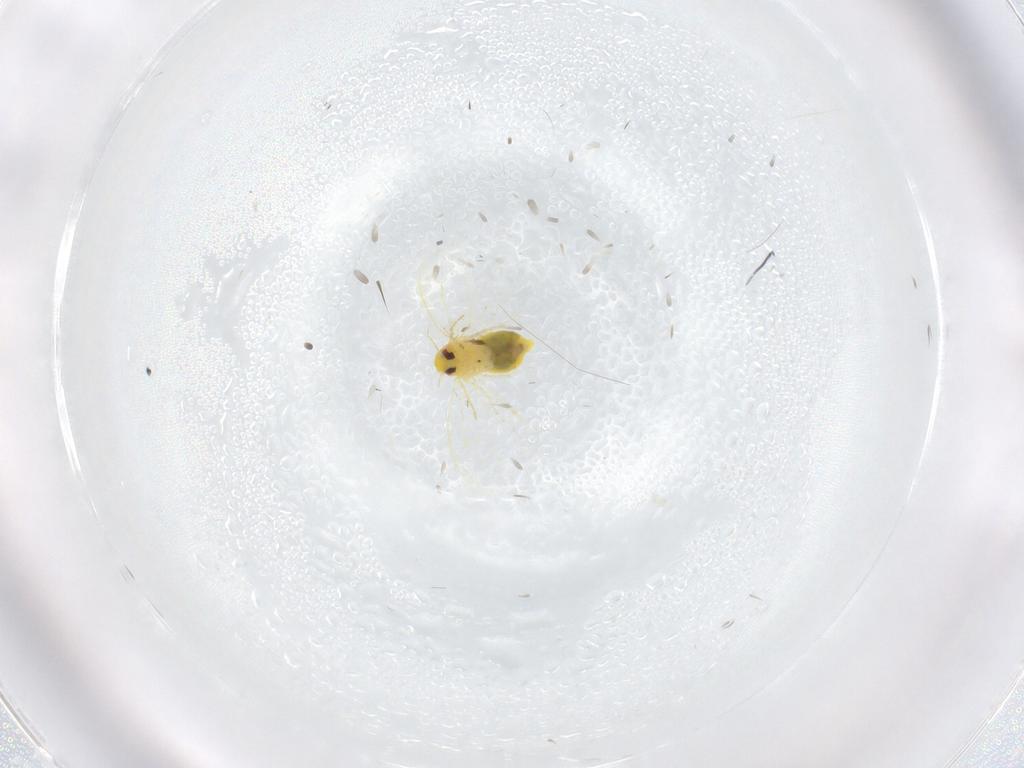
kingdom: Animalia
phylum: Arthropoda
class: Insecta
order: Hemiptera
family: Aleyrodidae
